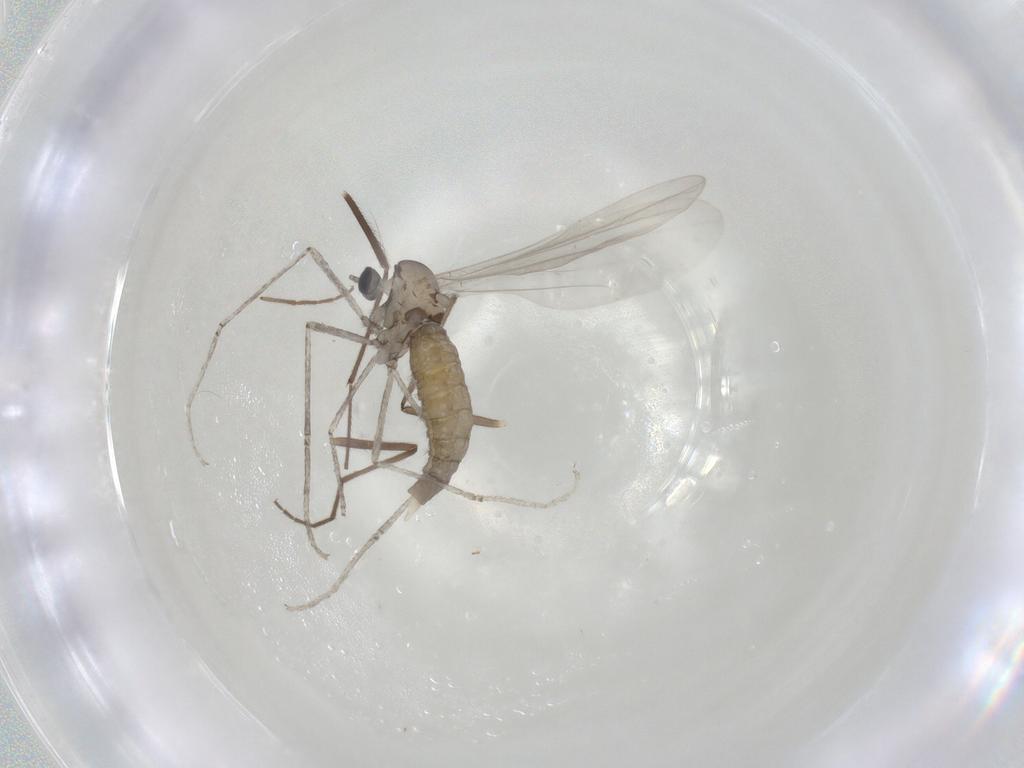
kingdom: Animalia
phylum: Arthropoda
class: Insecta
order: Diptera
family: Cecidomyiidae
